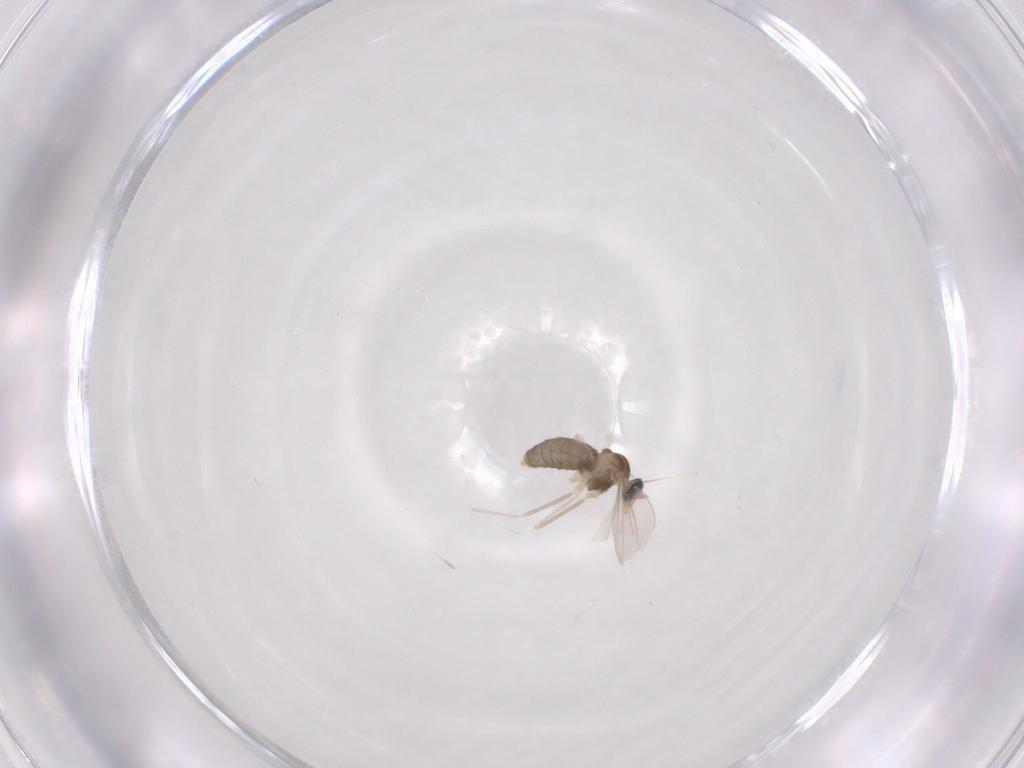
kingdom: Animalia
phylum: Arthropoda
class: Insecta
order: Diptera
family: Cecidomyiidae
